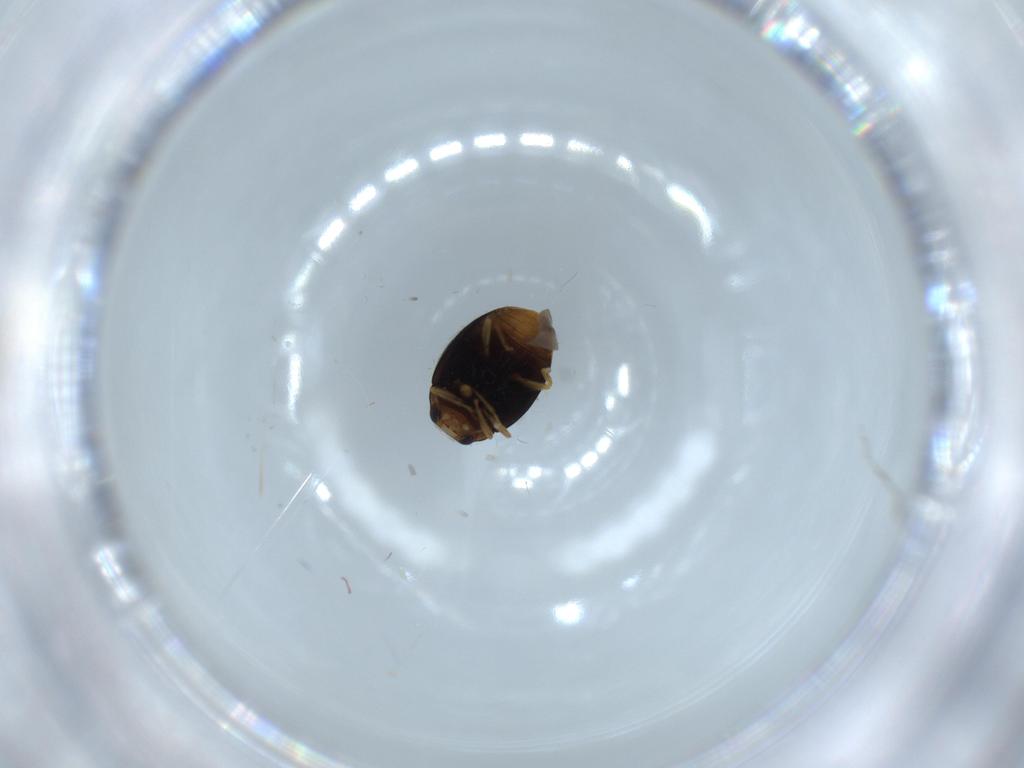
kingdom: Animalia
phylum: Arthropoda
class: Insecta
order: Coleoptera
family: Coccinellidae
